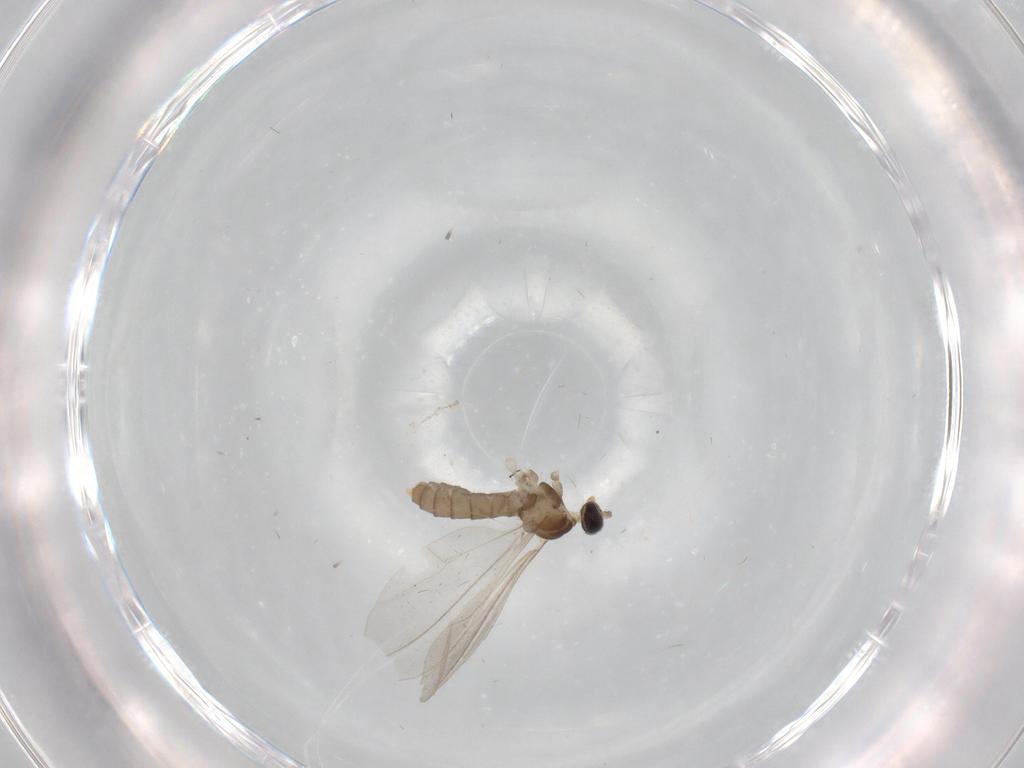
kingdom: Animalia
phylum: Arthropoda
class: Insecta
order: Diptera
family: Cecidomyiidae
